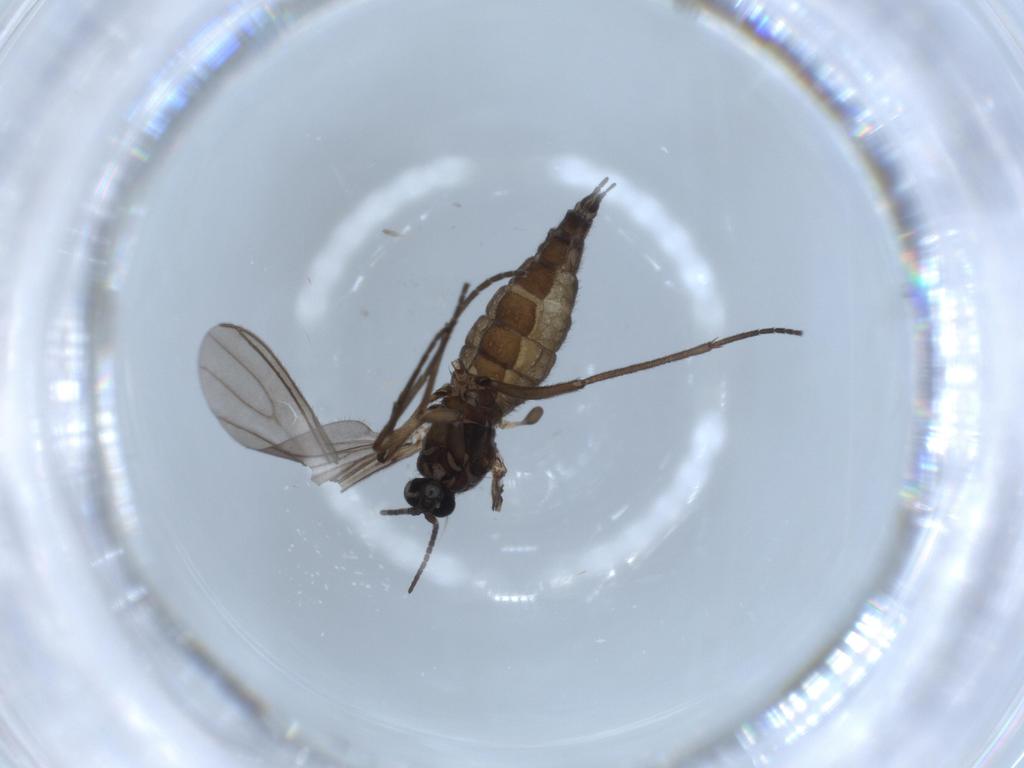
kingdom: Animalia
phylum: Arthropoda
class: Insecta
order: Diptera
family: Sciaridae
